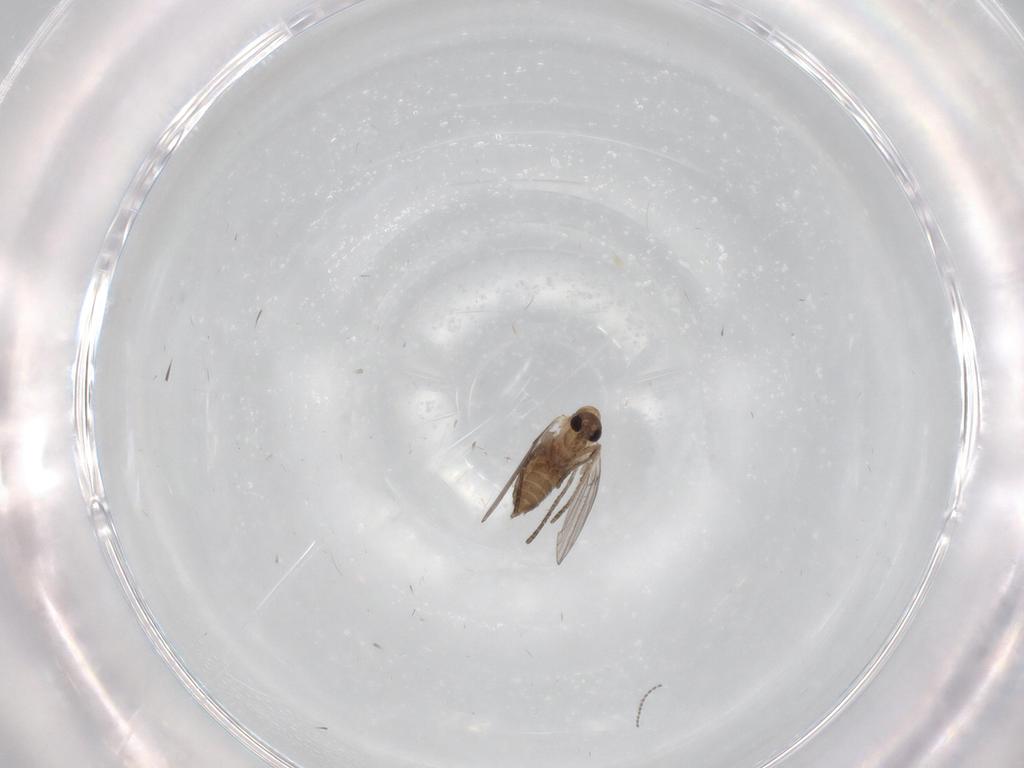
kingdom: Animalia
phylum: Arthropoda
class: Insecta
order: Diptera
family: Psychodidae
